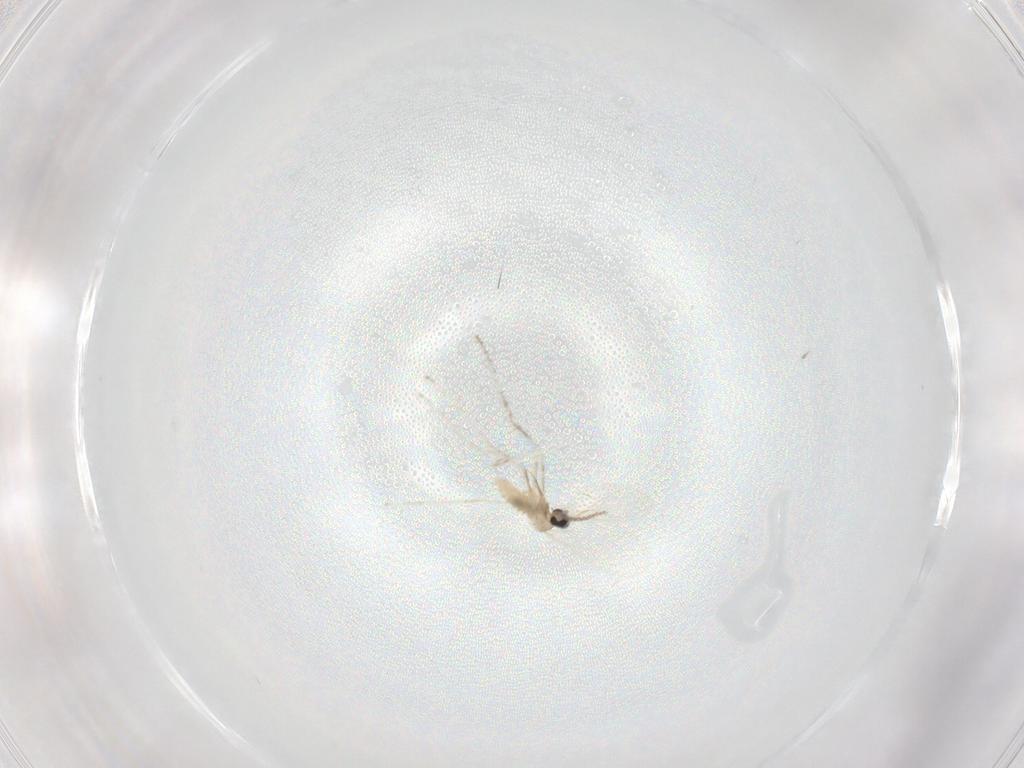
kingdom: Animalia
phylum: Arthropoda
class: Insecta
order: Diptera
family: Cecidomyiidae
